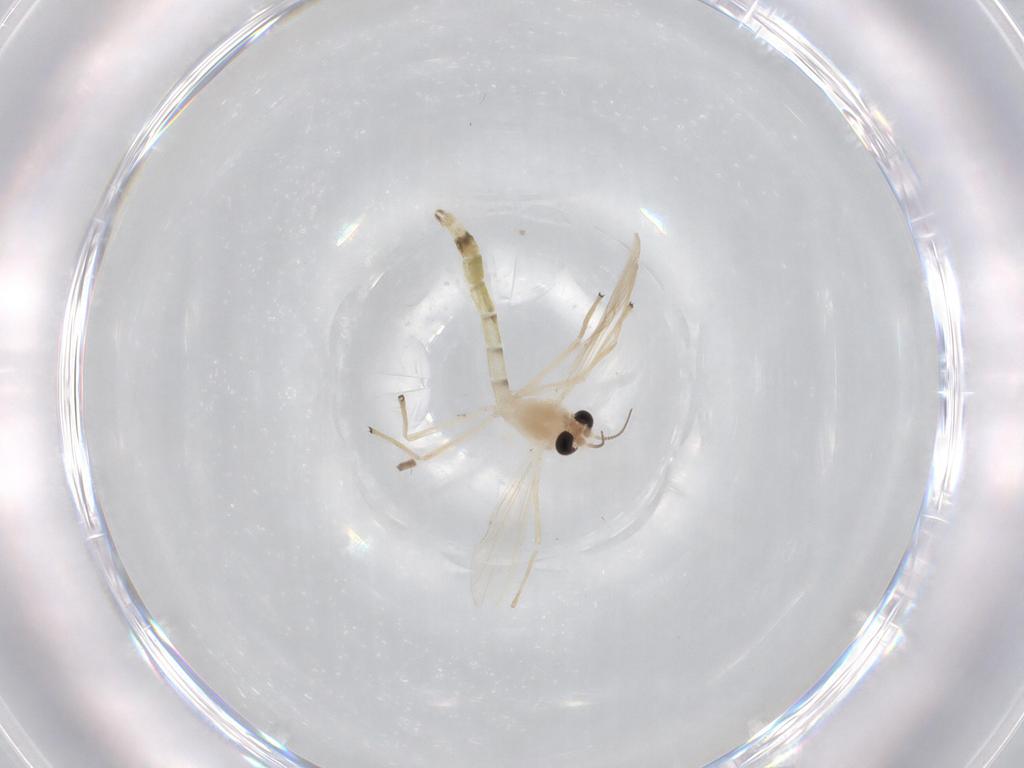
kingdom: Animalia
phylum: Arthropoda
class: Insecta
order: Diptera
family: Chironomidae
